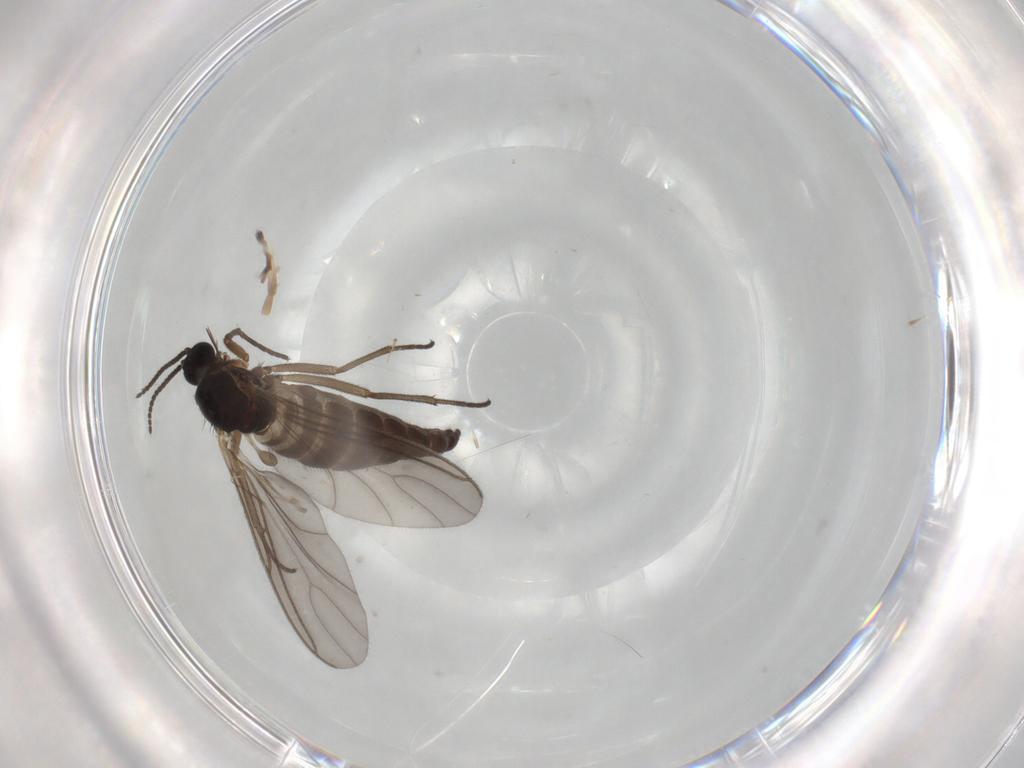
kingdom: Animalia
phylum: Arthropoda
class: Insecta
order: Diptera
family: Sciaridae
